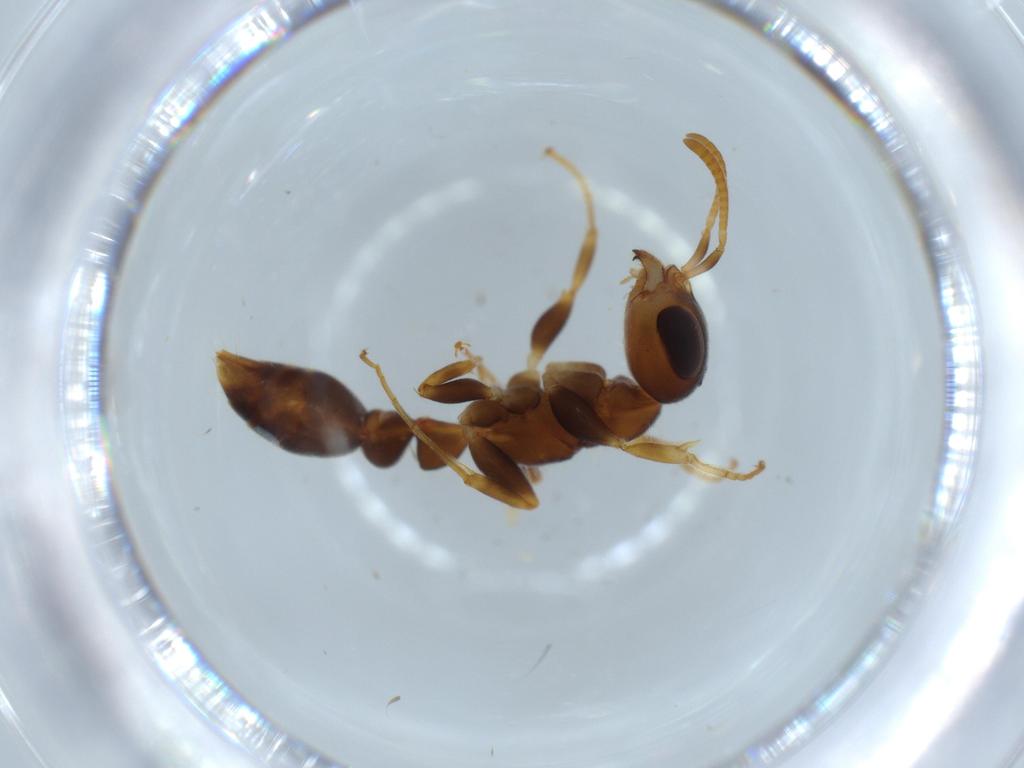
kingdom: Animalia
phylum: Arthropoda
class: Insecta
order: Hymenoptera
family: Formicidae
